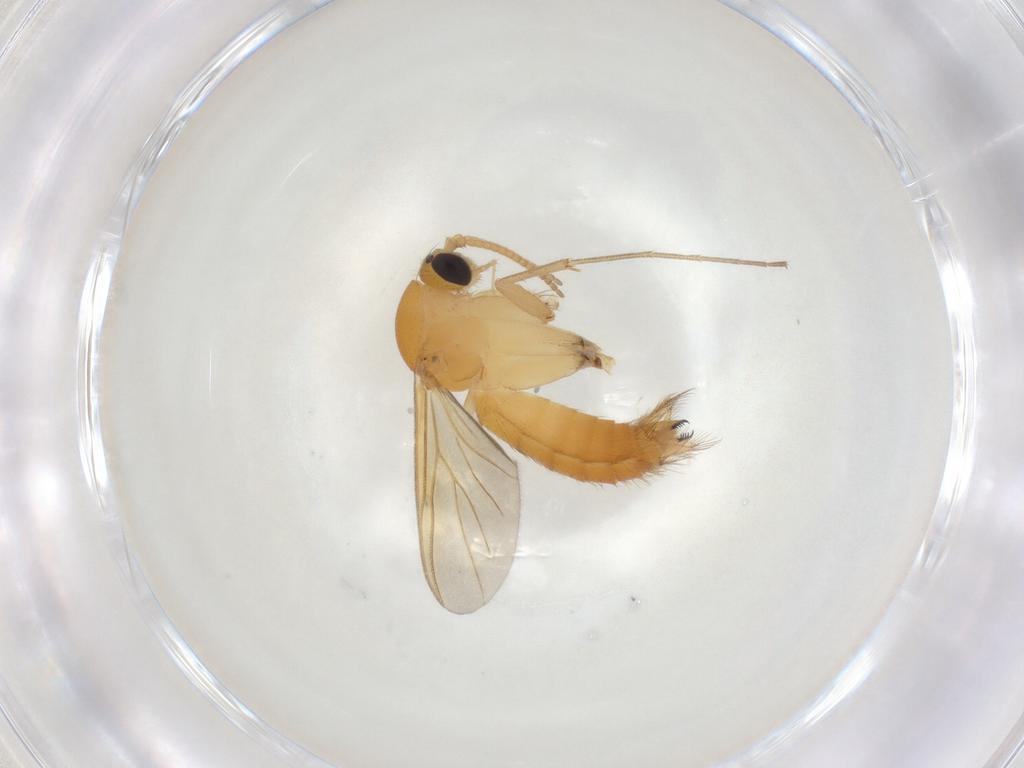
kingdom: Animalia
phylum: Arthropoda
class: Insecta
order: Diptera
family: Mycetophilidae
